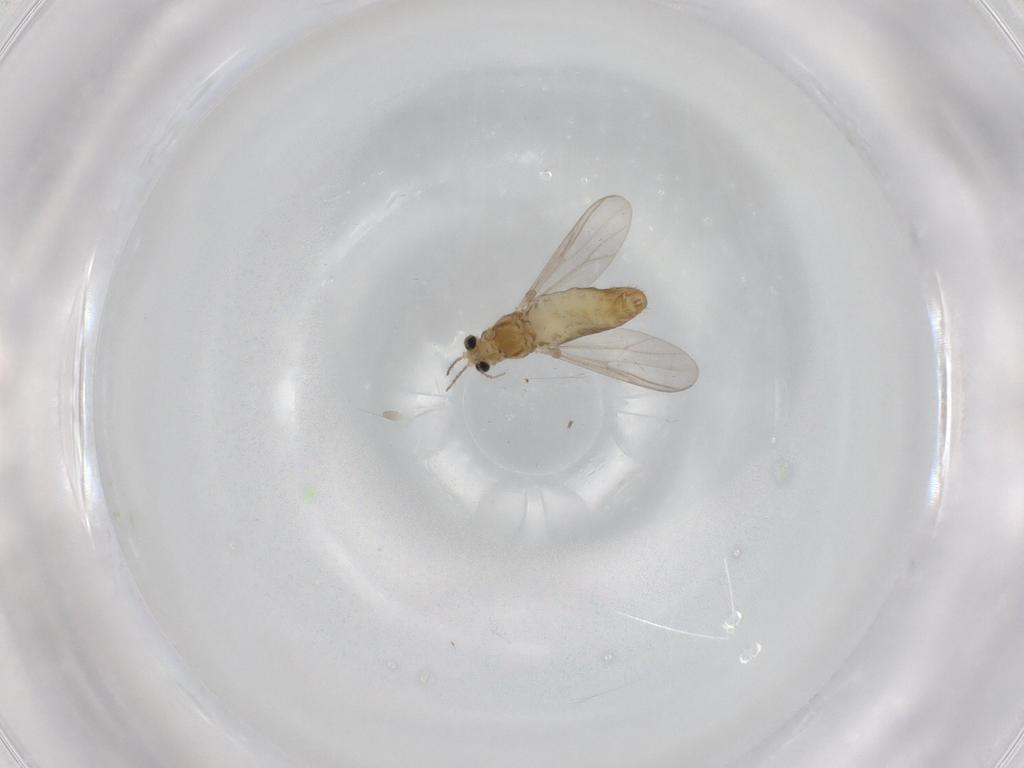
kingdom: Animalia
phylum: Arthropoda
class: Insecta
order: Diptera
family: Chironomidae
